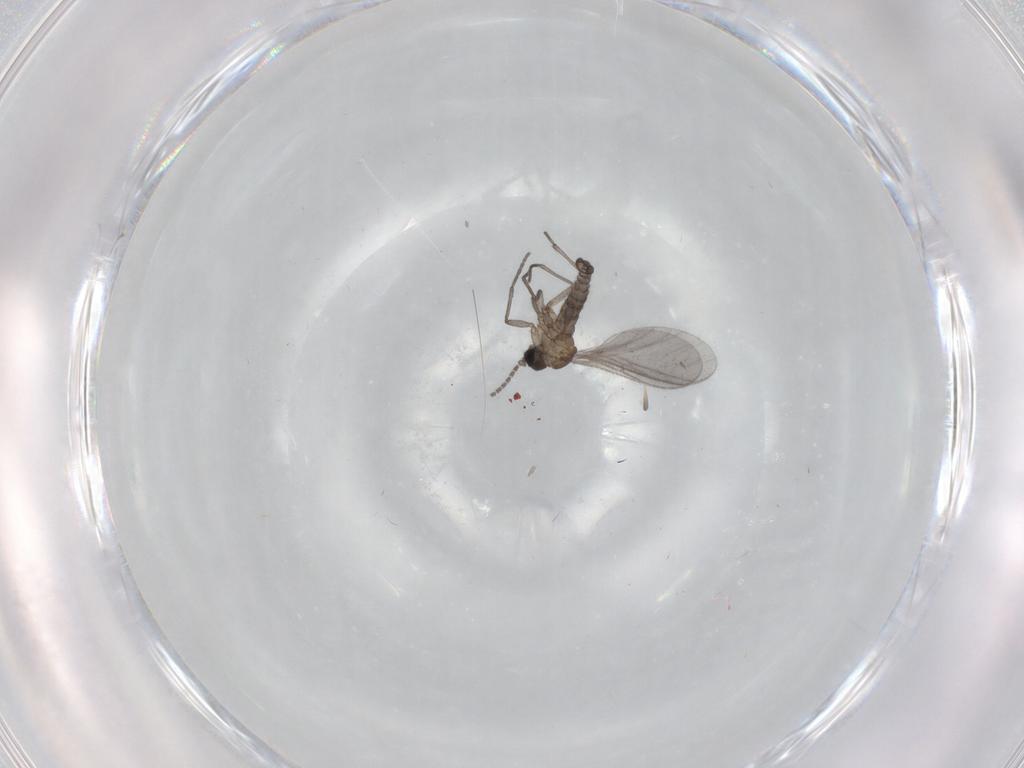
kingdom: Animalia
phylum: Arthropoda
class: Insecta
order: Diptera
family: Sciaridae
